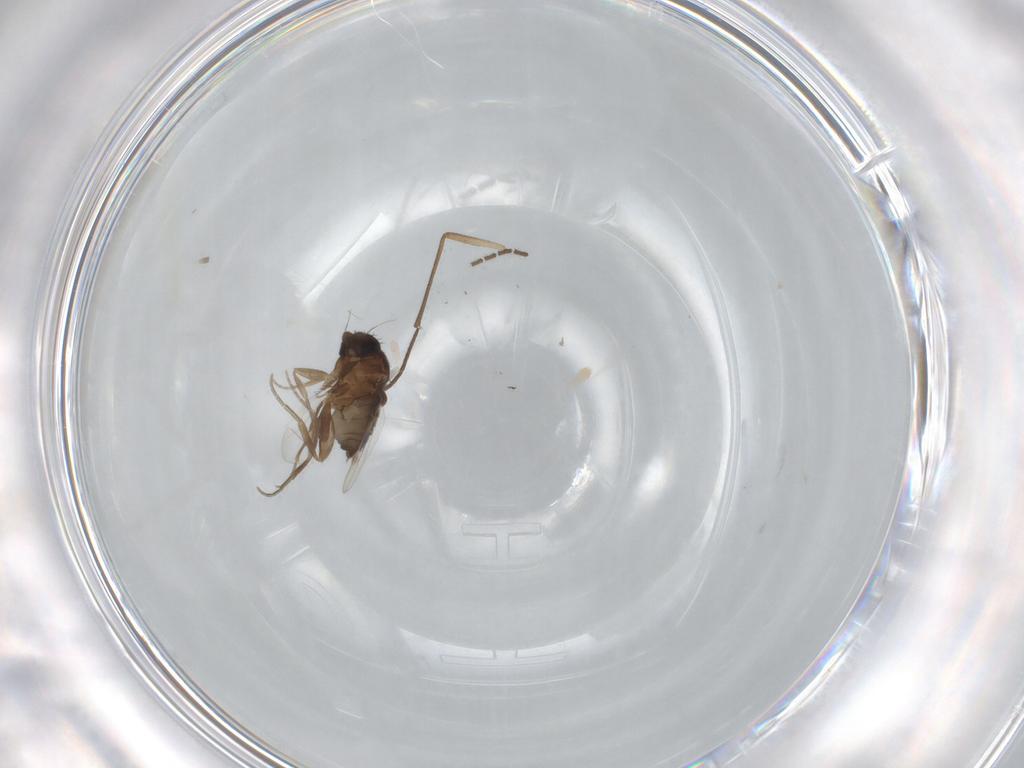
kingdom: Animalia
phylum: Arthropoda
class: Insecta
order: Diptera
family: Phoridae
